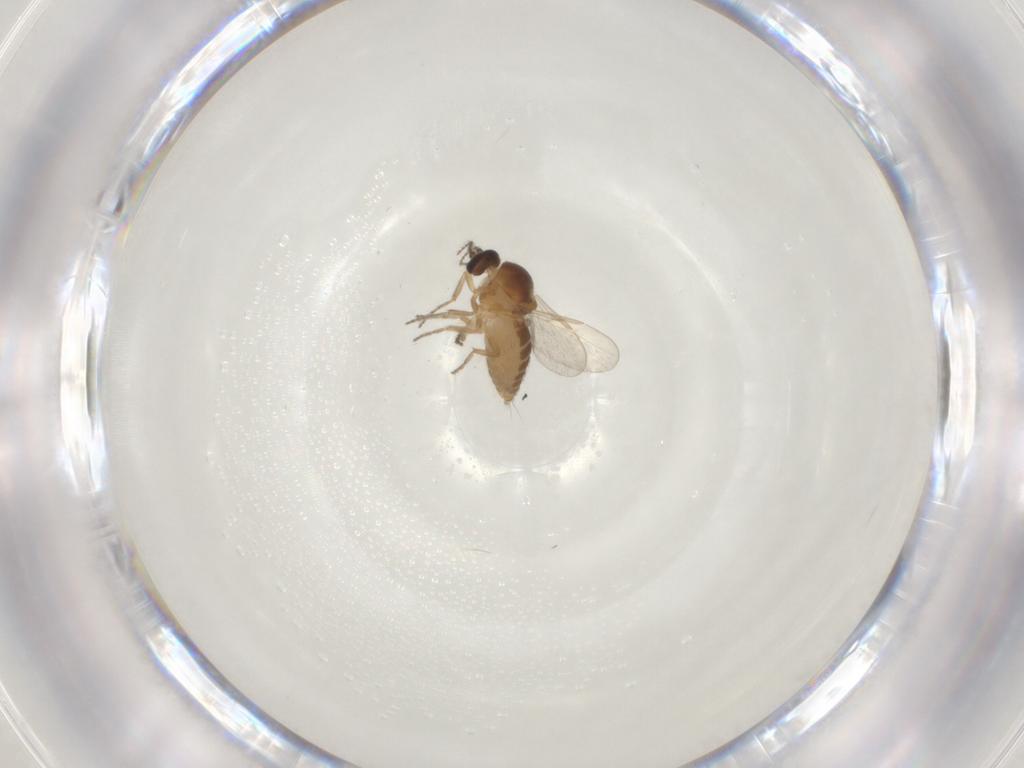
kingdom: Animalia
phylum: Arthropoda
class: Insecta
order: Diptera
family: Ceratopogonidae
